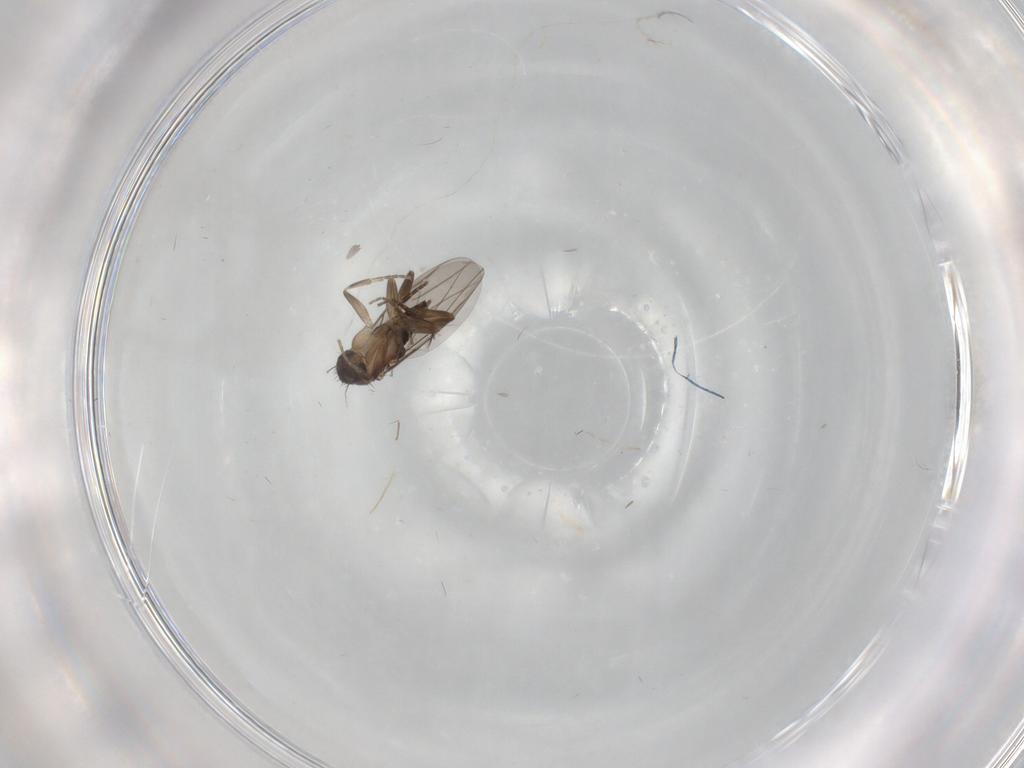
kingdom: Animalia
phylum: Arthropoda
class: Insecta
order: Diptera
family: Phoridae
